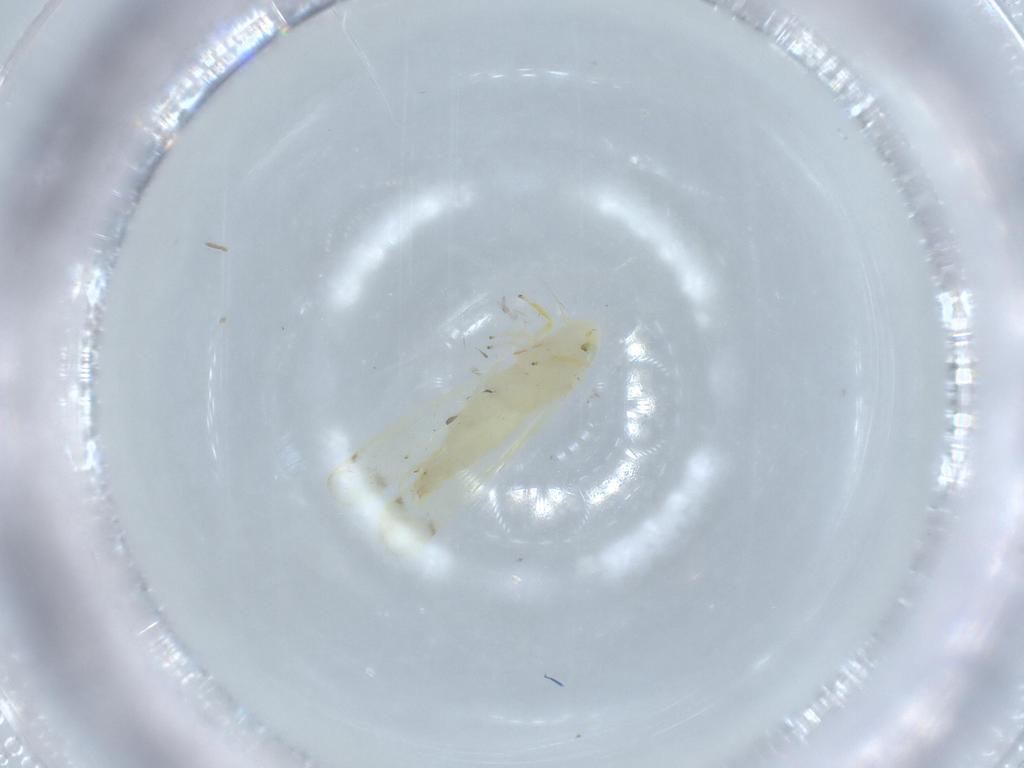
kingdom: Animalia
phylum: Arthropoda
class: Insecta
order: Hemiptera
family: Cicadellidae
